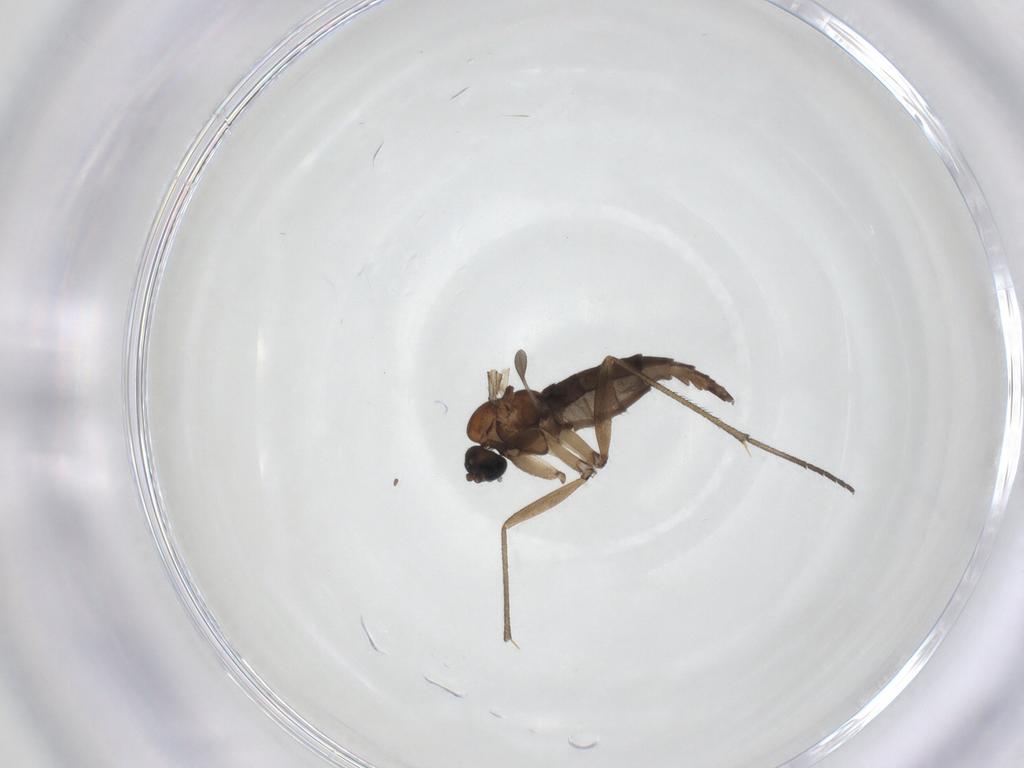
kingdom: Animalia
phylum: Arthropoda
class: Insecta
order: Diptera
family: Sciaridae
